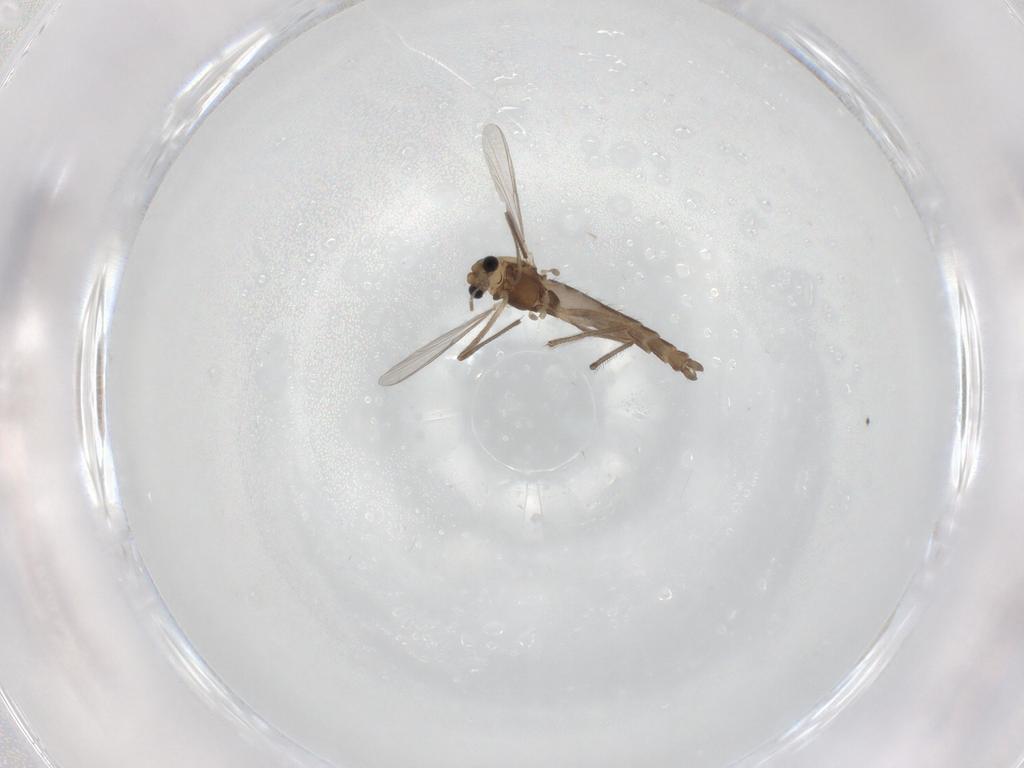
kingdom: Animalia
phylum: Arthropoda
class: Insecta
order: Diptera
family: Chironomidae
